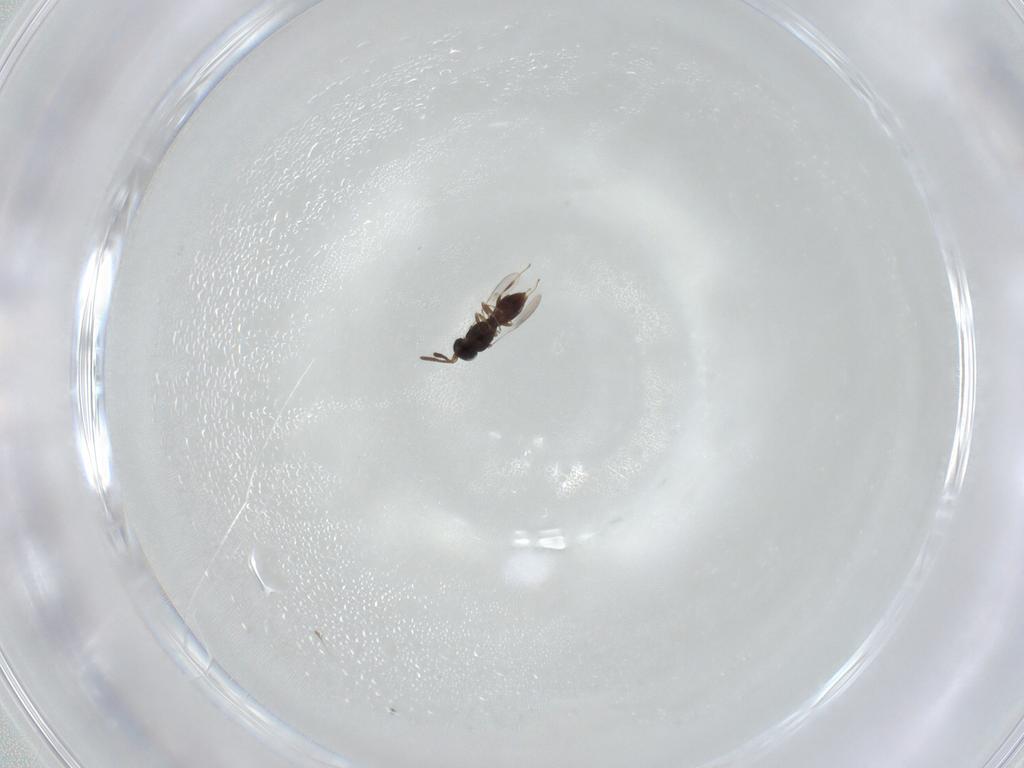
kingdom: Animalia
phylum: Arthropoda
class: Insecta
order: Hymenoptera
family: Scelionidae
